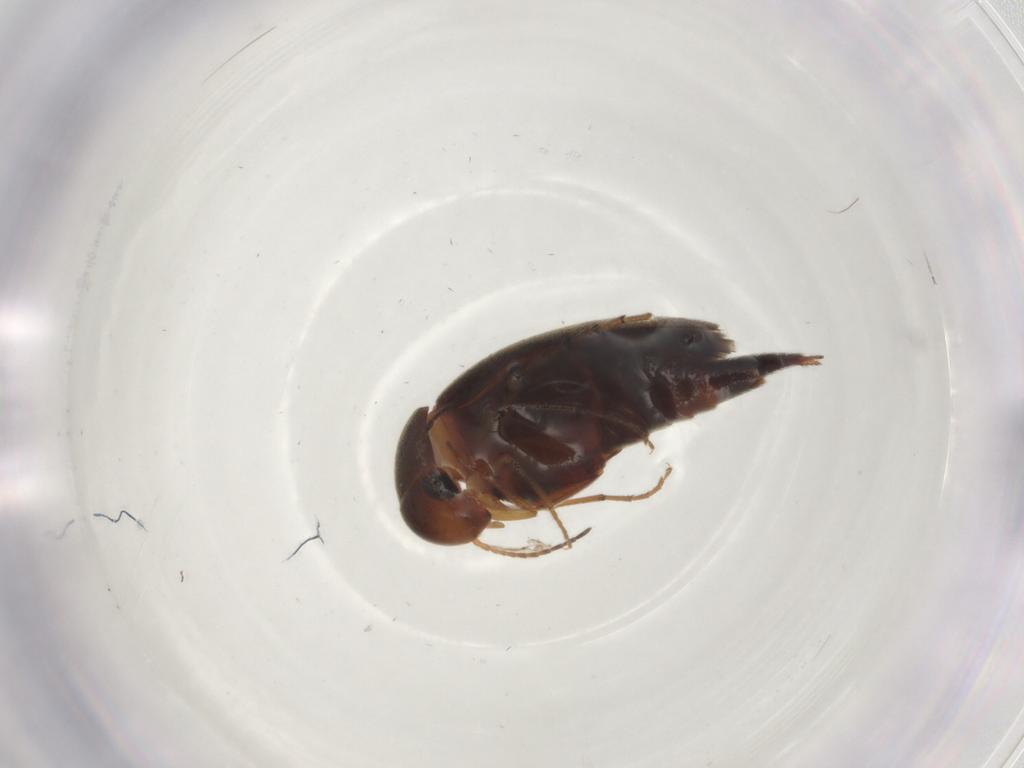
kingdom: Animalia
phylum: Arthropoda
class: Insecta
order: Coleoptera
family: Mordellidae
